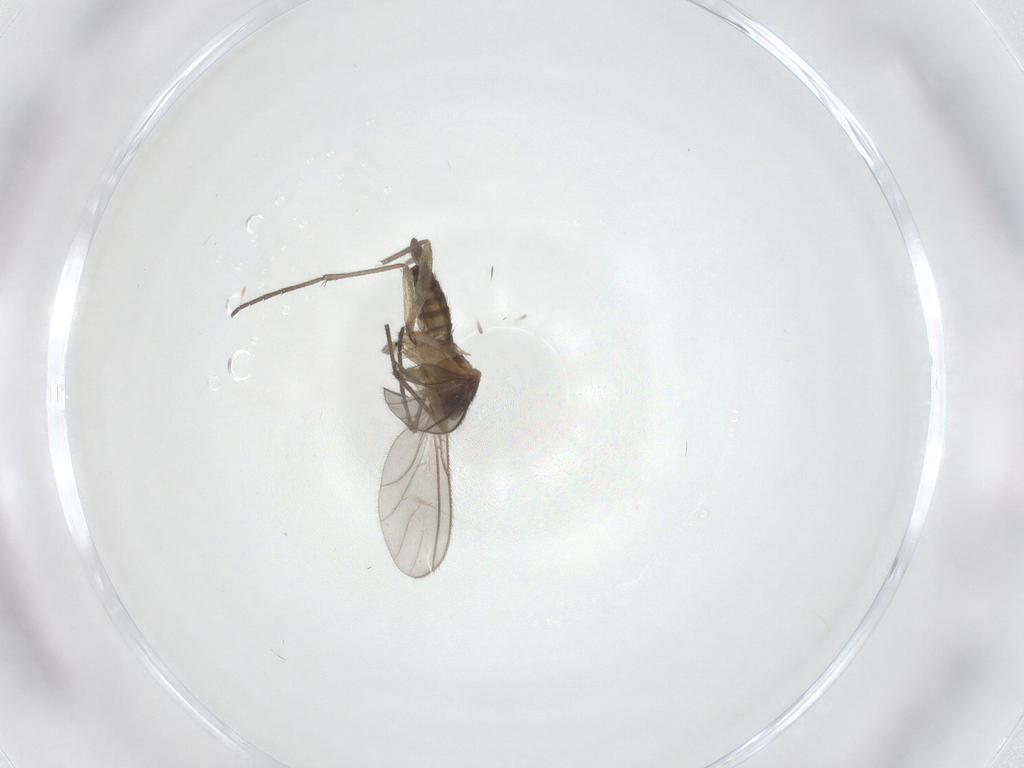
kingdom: Animalia
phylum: Arthropoda
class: Insecta
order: Diptera
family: Sciaridae
